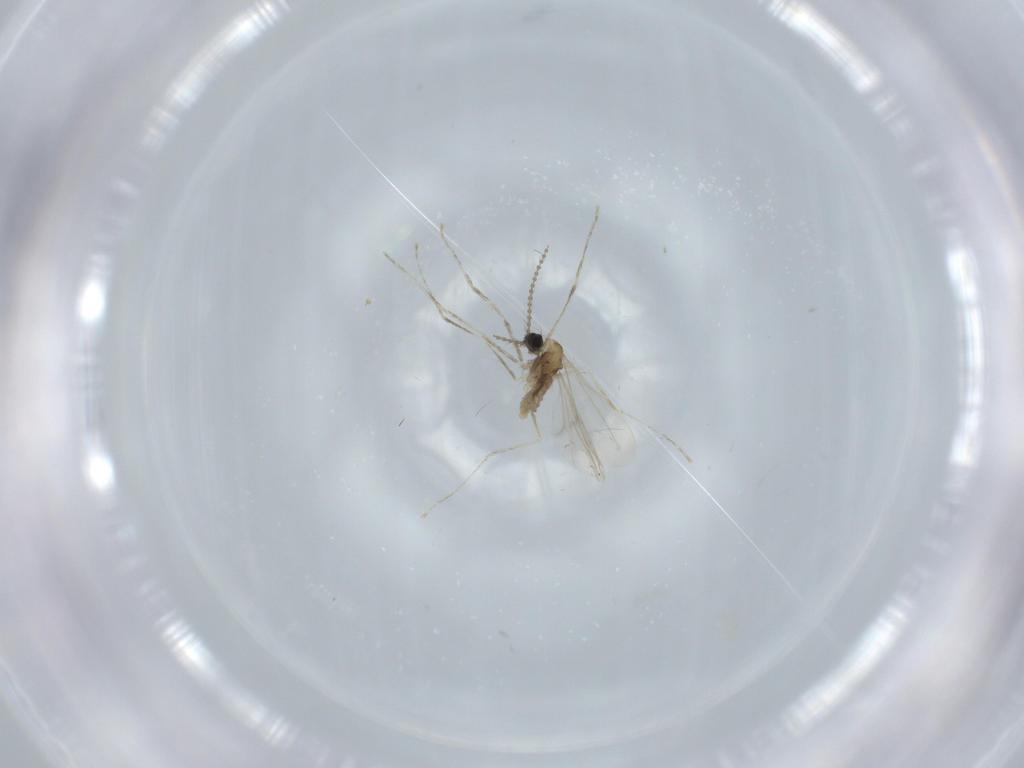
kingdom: Animalia
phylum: Arthropoda
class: Insecta
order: Diptera
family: Cecidomyiidae
